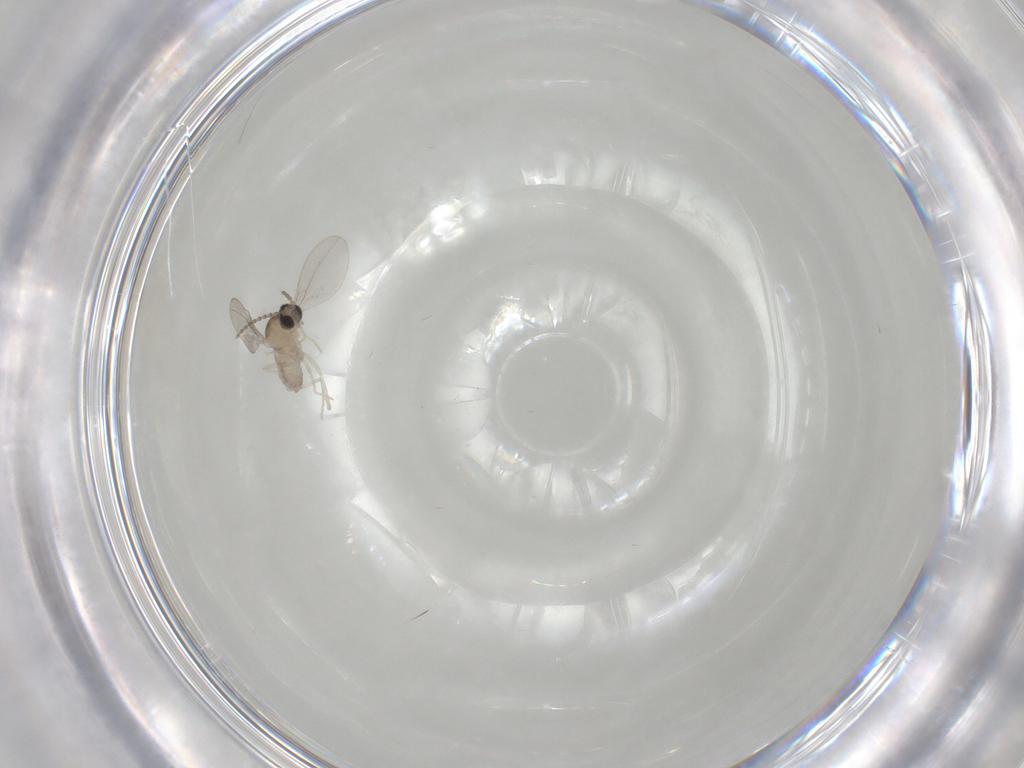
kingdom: Animalia
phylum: Arthropoda
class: Insecta
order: Diptera
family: Cecidomyiidae
